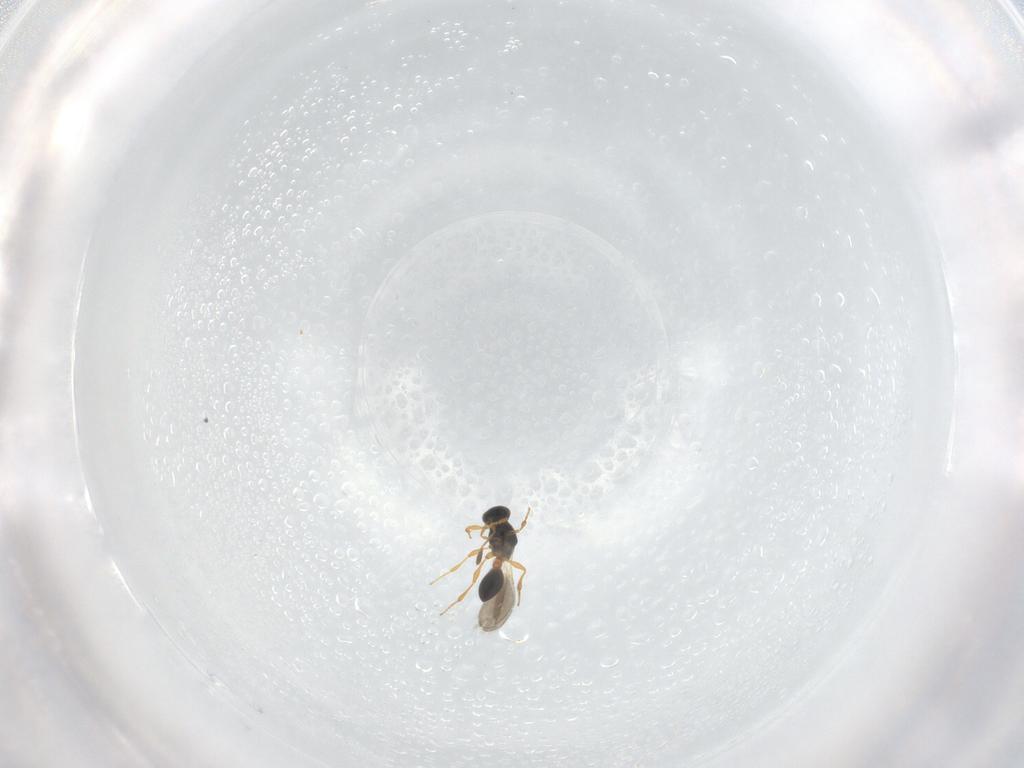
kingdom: Animalia
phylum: Arthropoda
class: Insecta
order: Hymenoptera
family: Platygastridae
